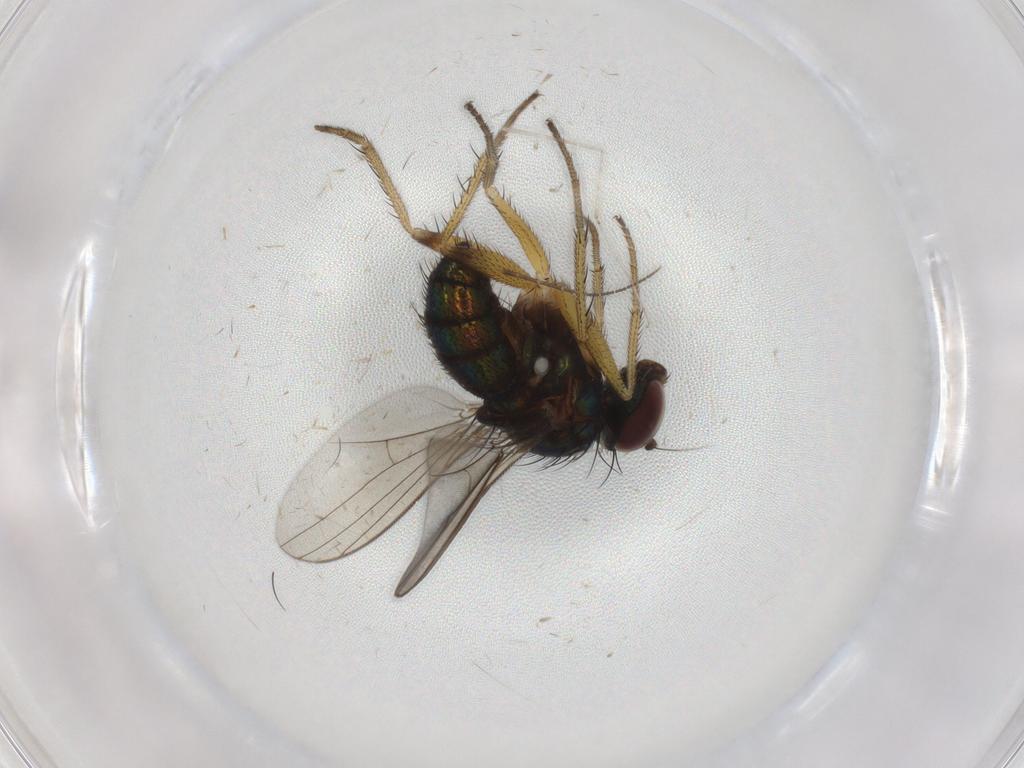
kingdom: Animalia
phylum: Arthropoda
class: Insecta
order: Diptera
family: Dolichopodidae
